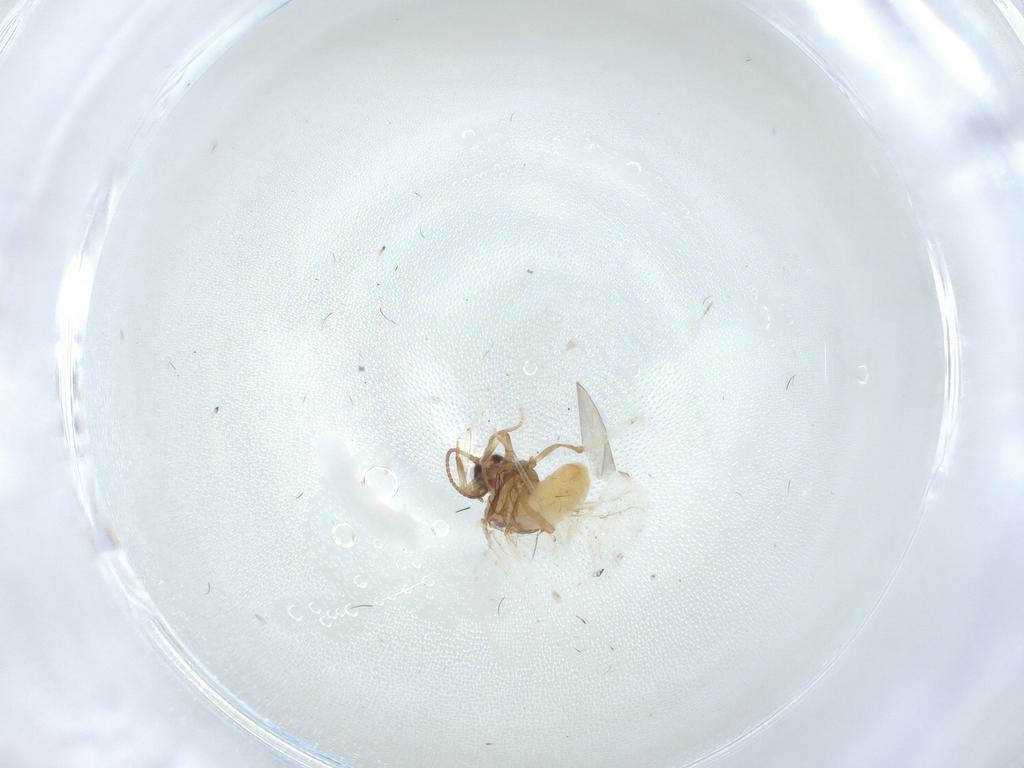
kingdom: Animalia
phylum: Arthropoda
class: Insecta
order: Neuroptera
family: Coniopterygidae
